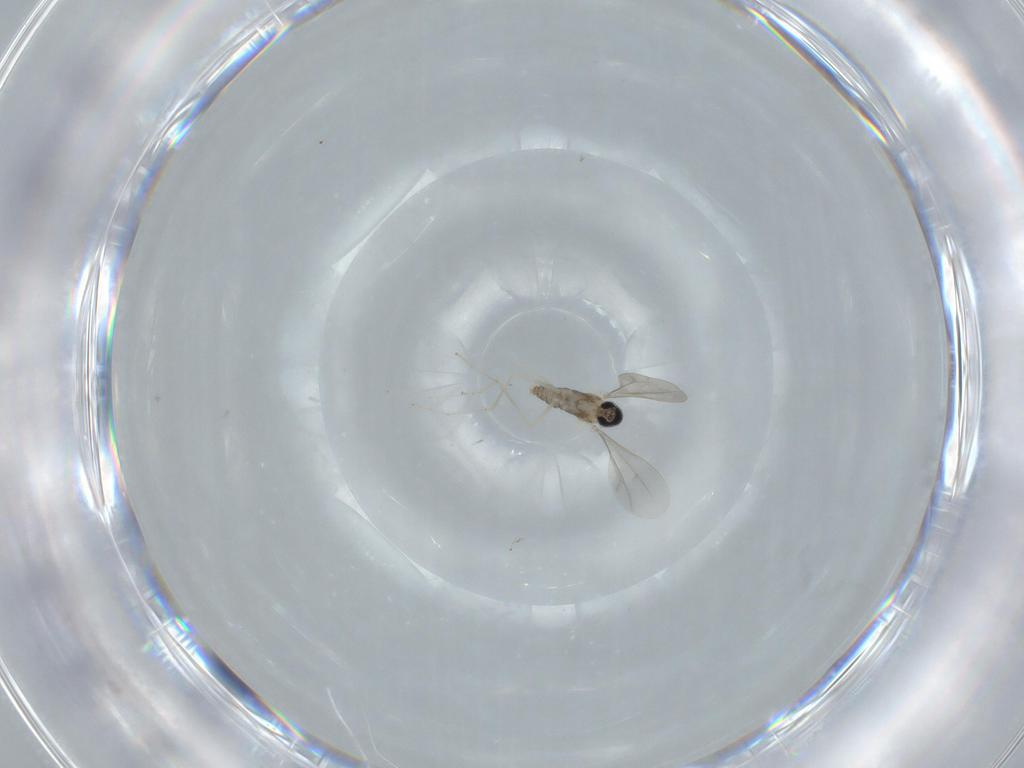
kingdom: Animalia
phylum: Arthropoda
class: Insecta
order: Diptera
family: Cecidomyiidae
